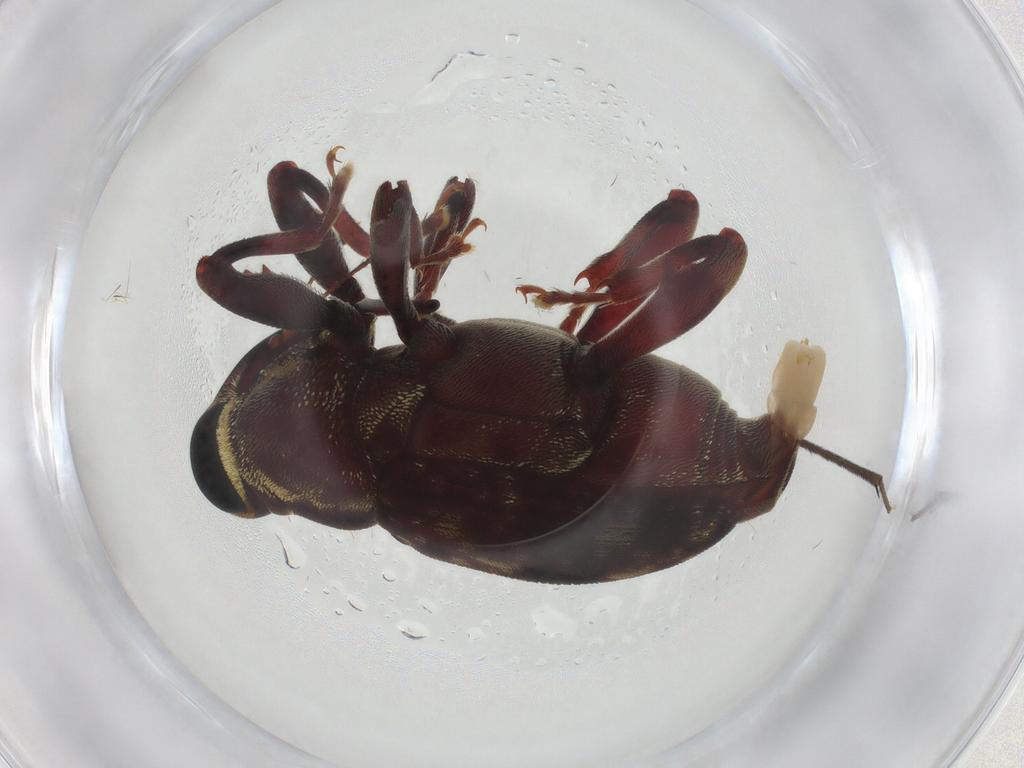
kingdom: Animalia
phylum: Arthropoda
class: Insecta
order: Coleoptera
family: Curculionidae
